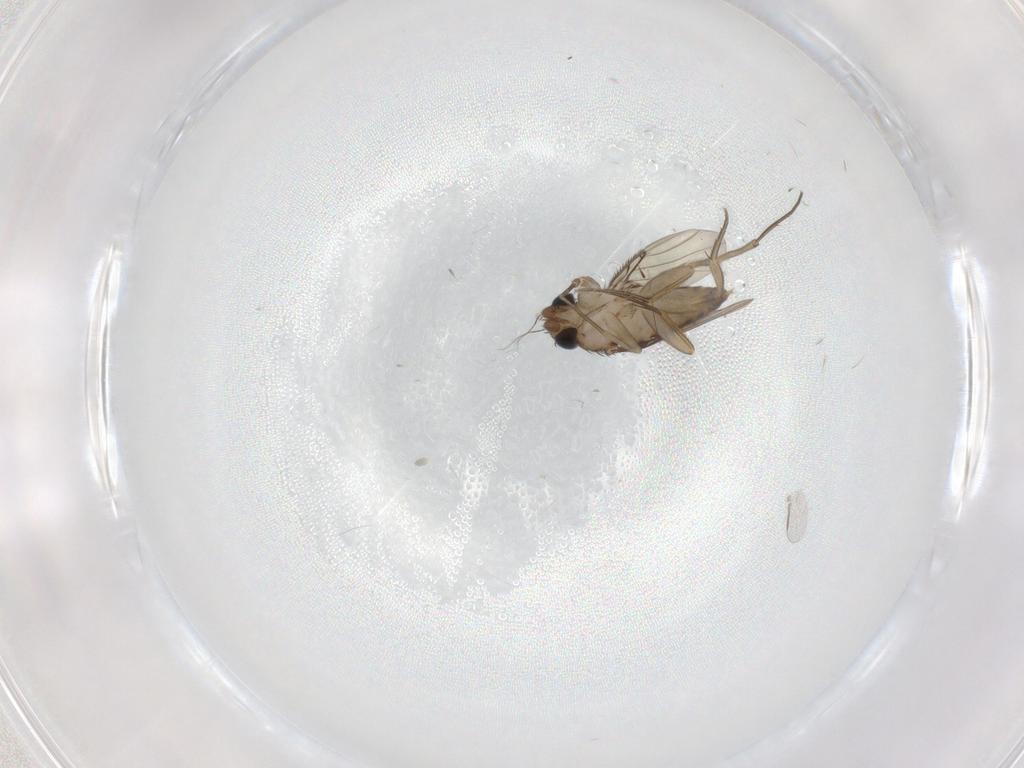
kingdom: Animalia
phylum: Arthropoda
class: Insecta
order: Diptera
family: Phoridae
